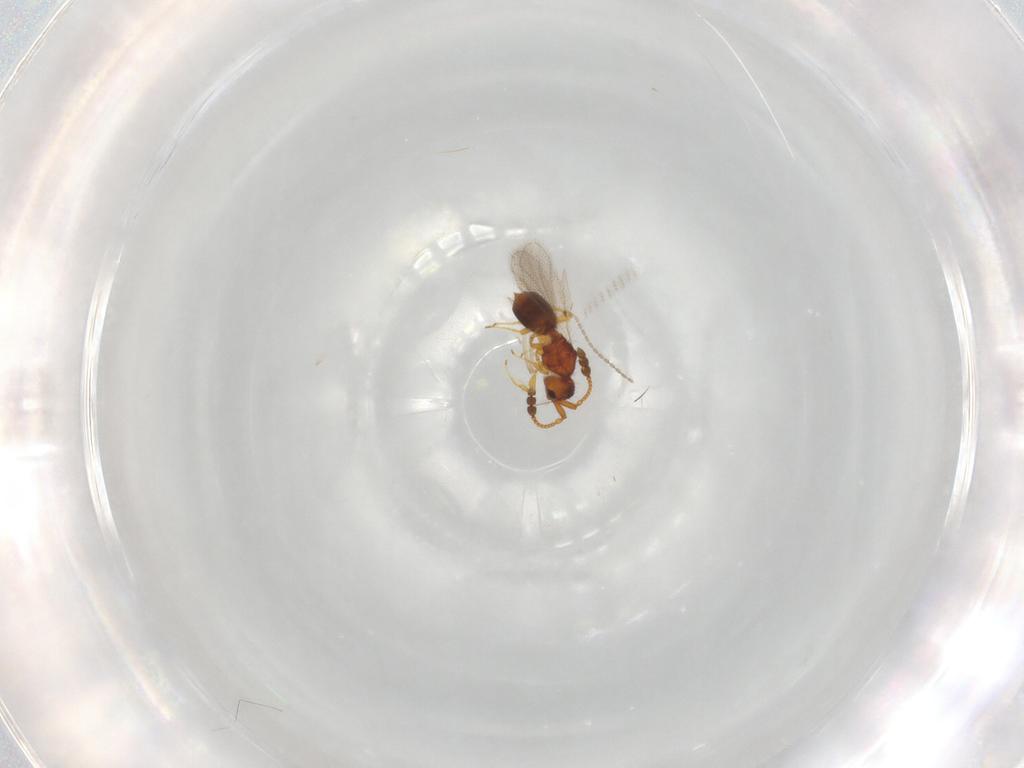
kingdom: Animalia
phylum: Arthropoda
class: Insecta
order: Hymenoptera
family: Diapriidae
